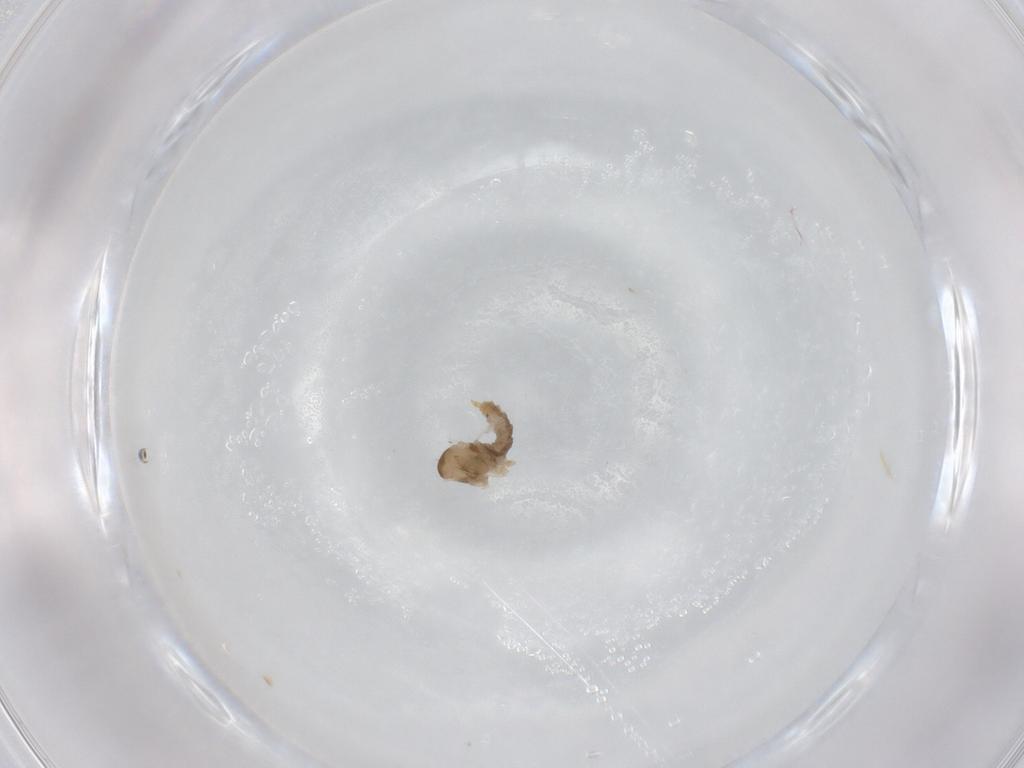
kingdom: Animalia
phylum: Arthropoda
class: Insecta
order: Diptera
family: Cecidomyiidae
